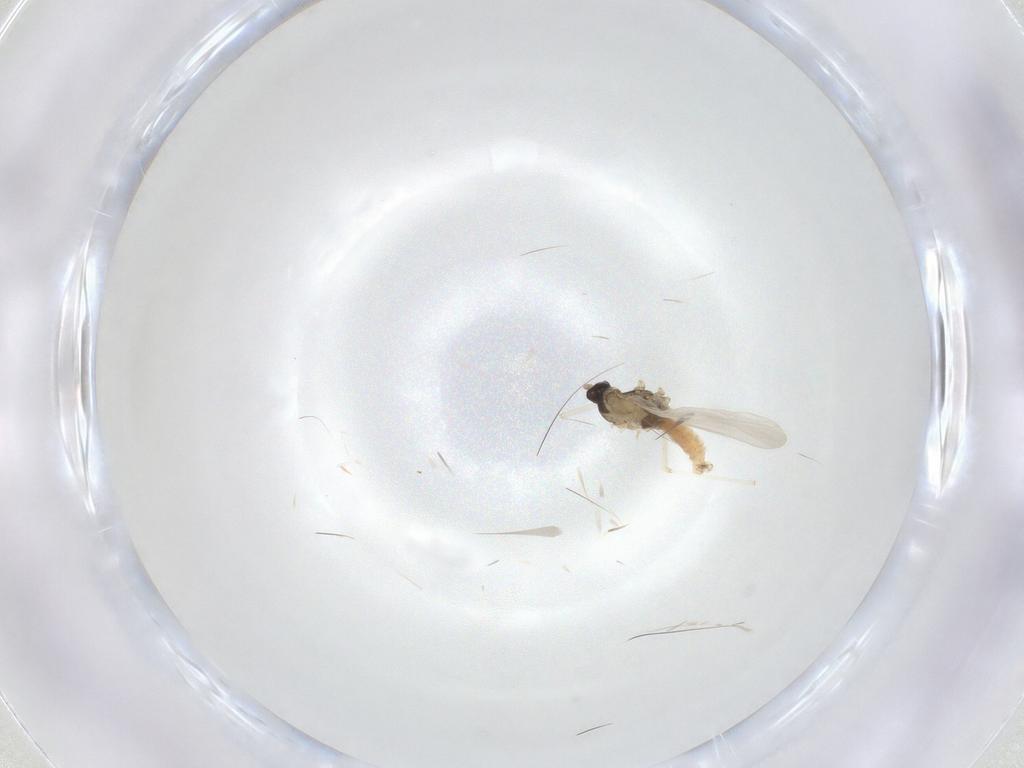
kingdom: Animalia
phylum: Arthropoda
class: Insecta
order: Diptera
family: Cecidomyiidae
